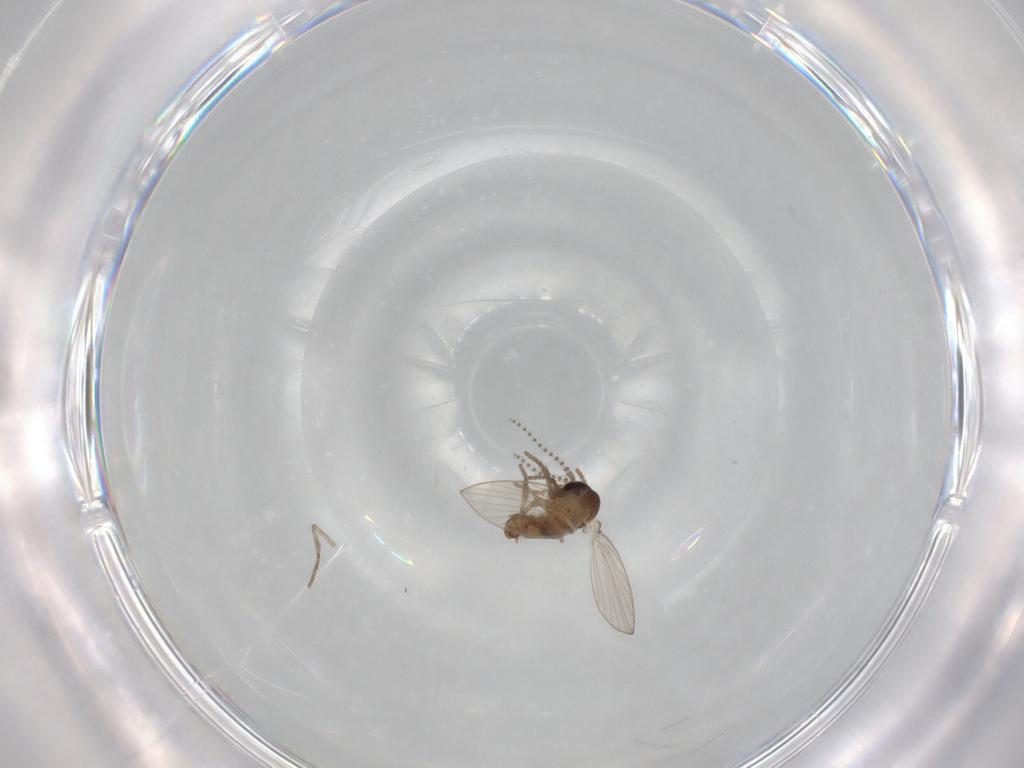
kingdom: Animalia
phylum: Arthropoda
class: Insecta
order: Diptera
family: Psychodidae
